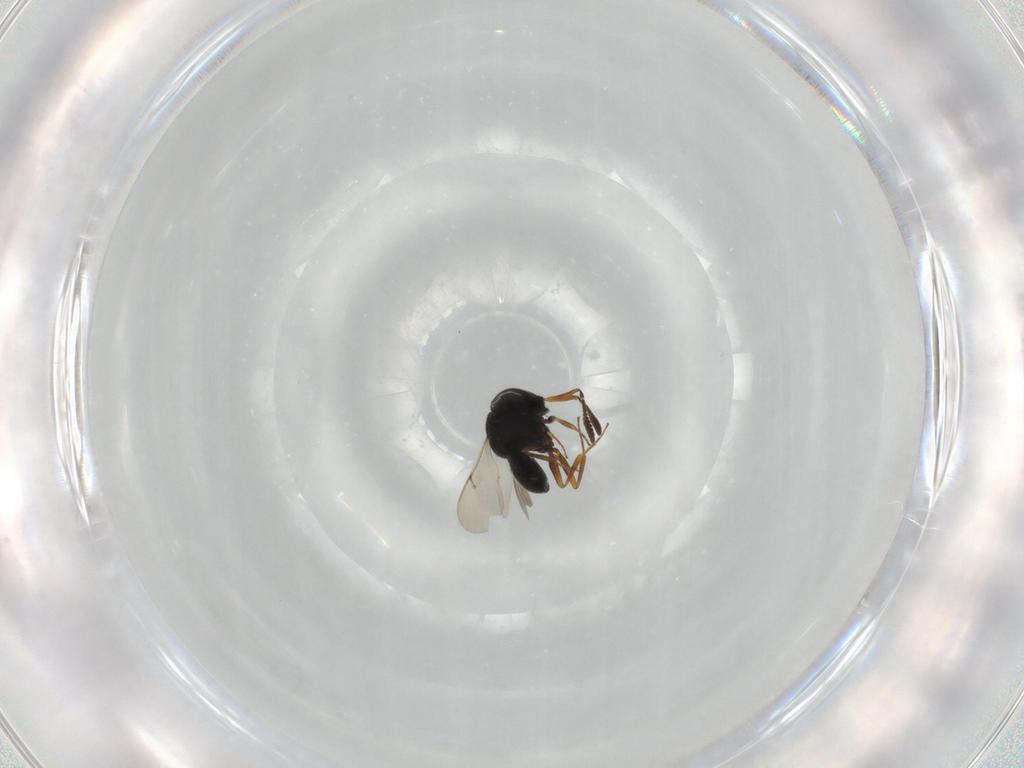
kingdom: Animalia
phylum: Arthropoda
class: Insecta
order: Hymenoptera
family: Scelionidae
